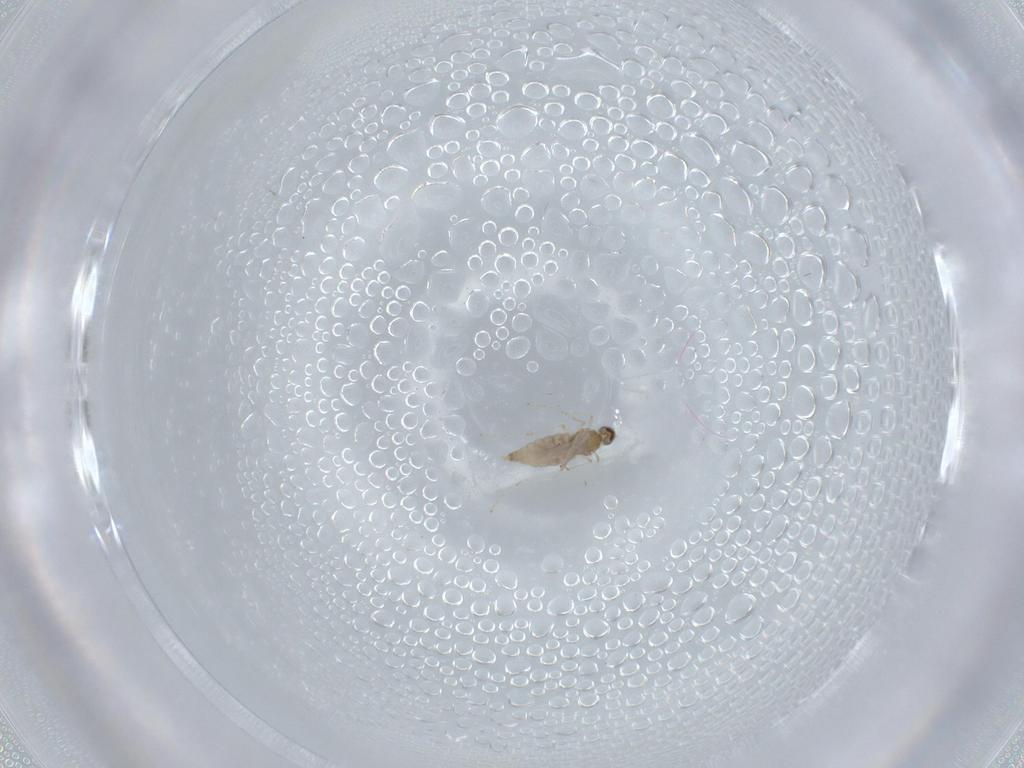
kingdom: Animalia
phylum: Arthropoda
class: Insecta
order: Diptera
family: Cecidomyiidae
